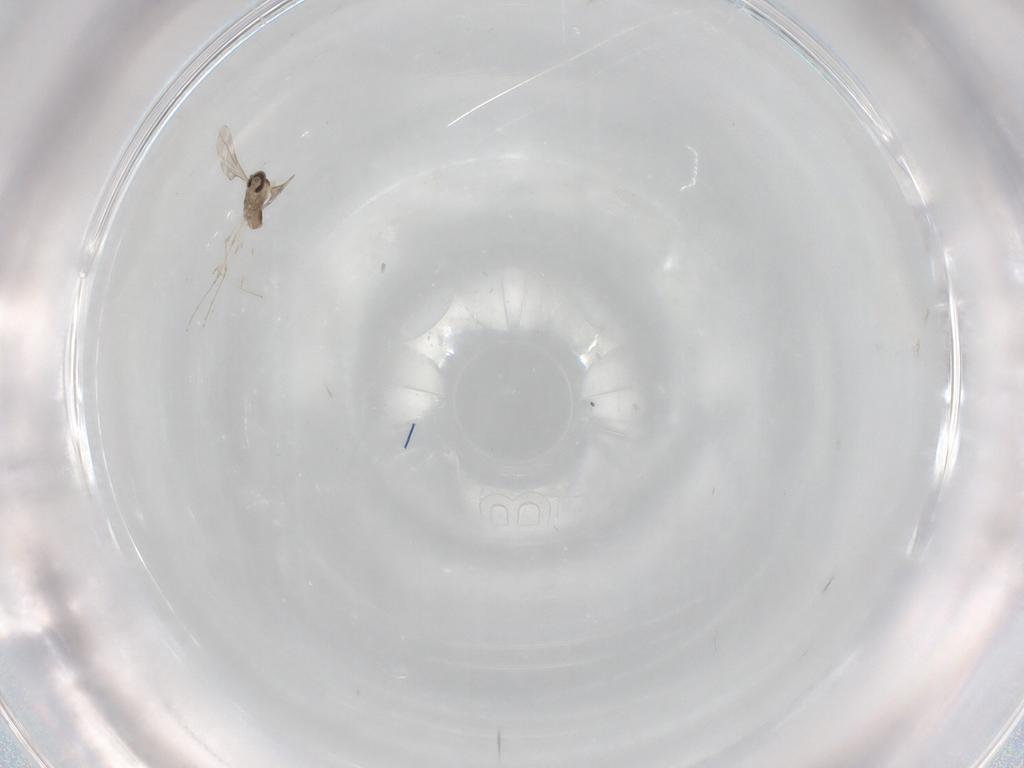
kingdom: Animalia
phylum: Arthropoda
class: Insecta
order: Diptera
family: Cecidomyiidae
